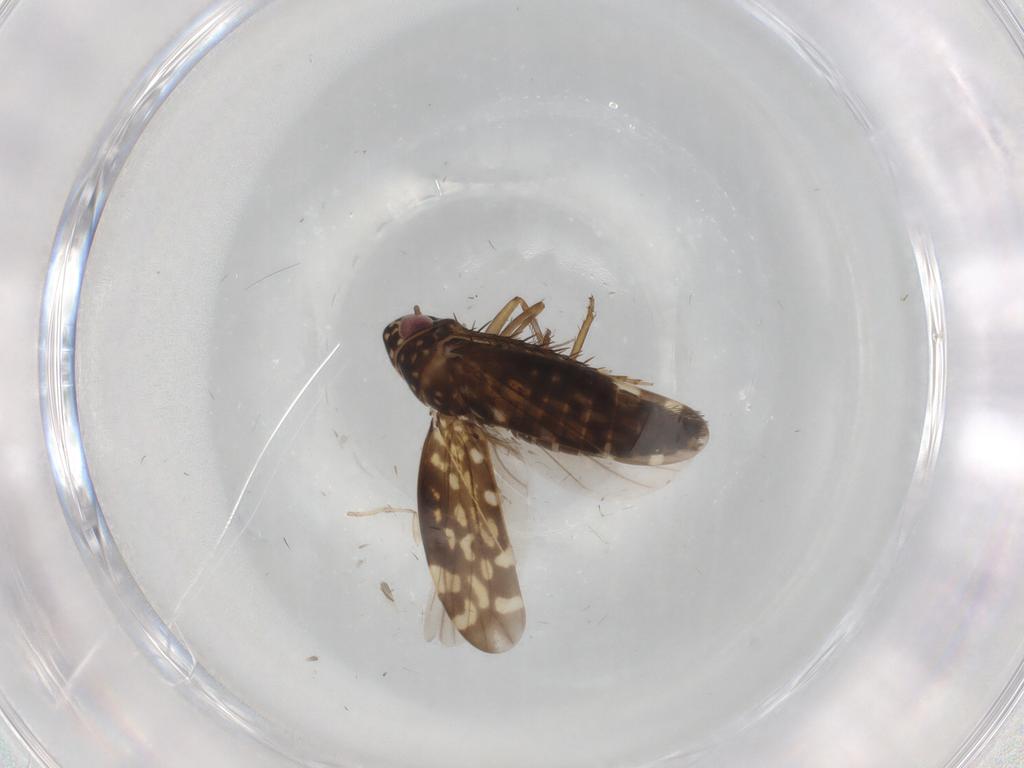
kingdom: Animalia
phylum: Arthropoda
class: Insecta
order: Hemiptera
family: Cicadellidae
